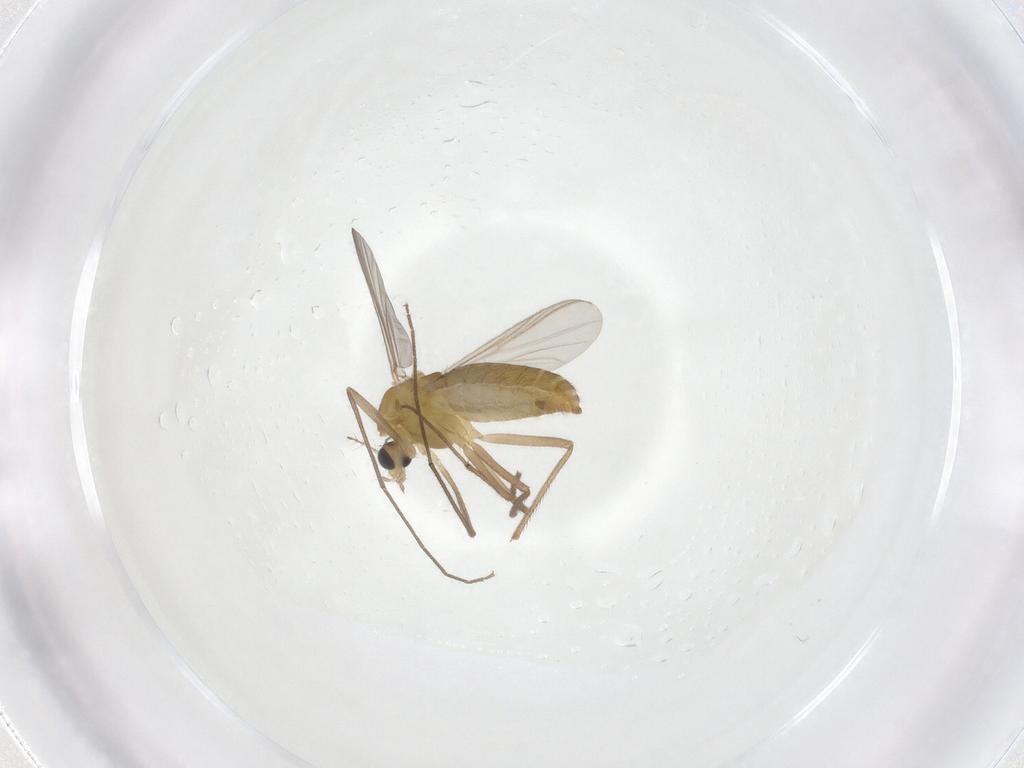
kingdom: Animalia
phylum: Arthropoda
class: Insecta
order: Diptera
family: Chironomidae
